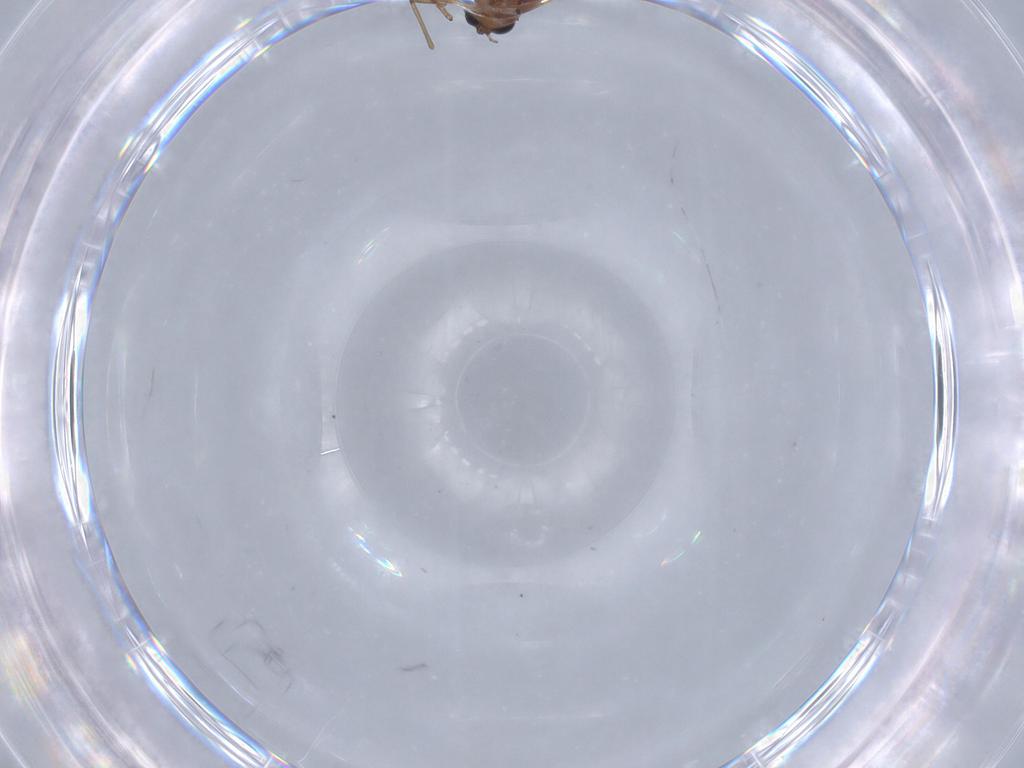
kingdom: Animalia
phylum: Arthropoda
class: Insecta
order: Diptera
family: Chironomidae
